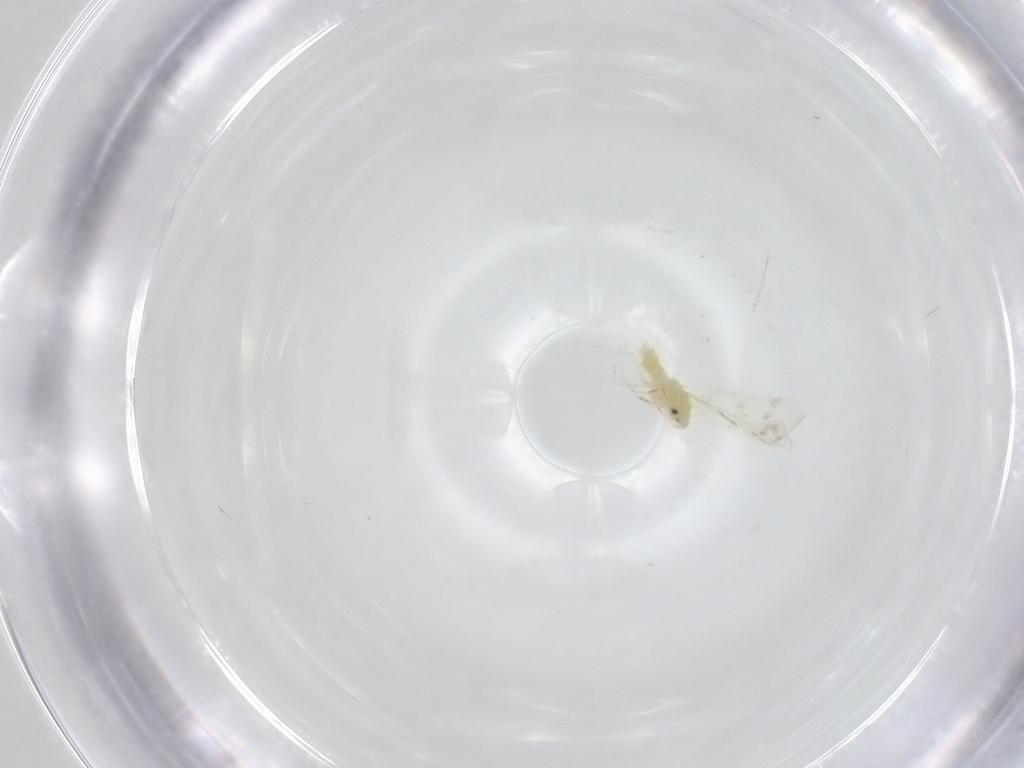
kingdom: Animalia
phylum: Arthropoda
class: Insecta
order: Hemiptera
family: Aleyrodidae
